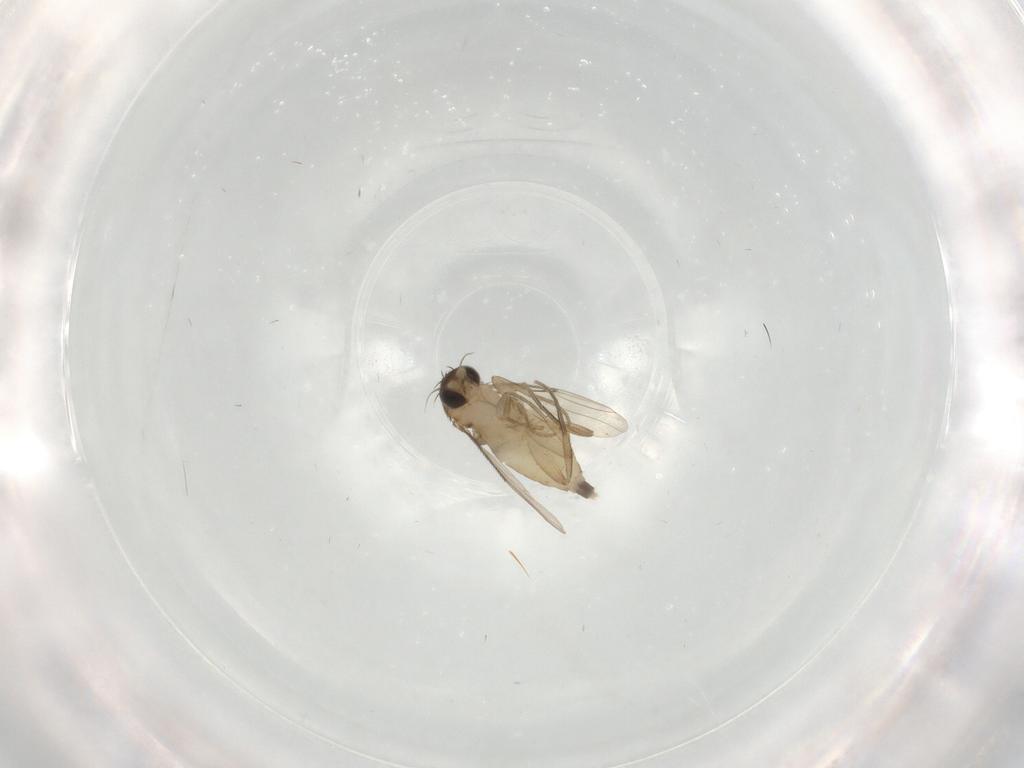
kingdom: Animalia
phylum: Arthropoda
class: Insecta
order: Diptera
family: Phoridae
